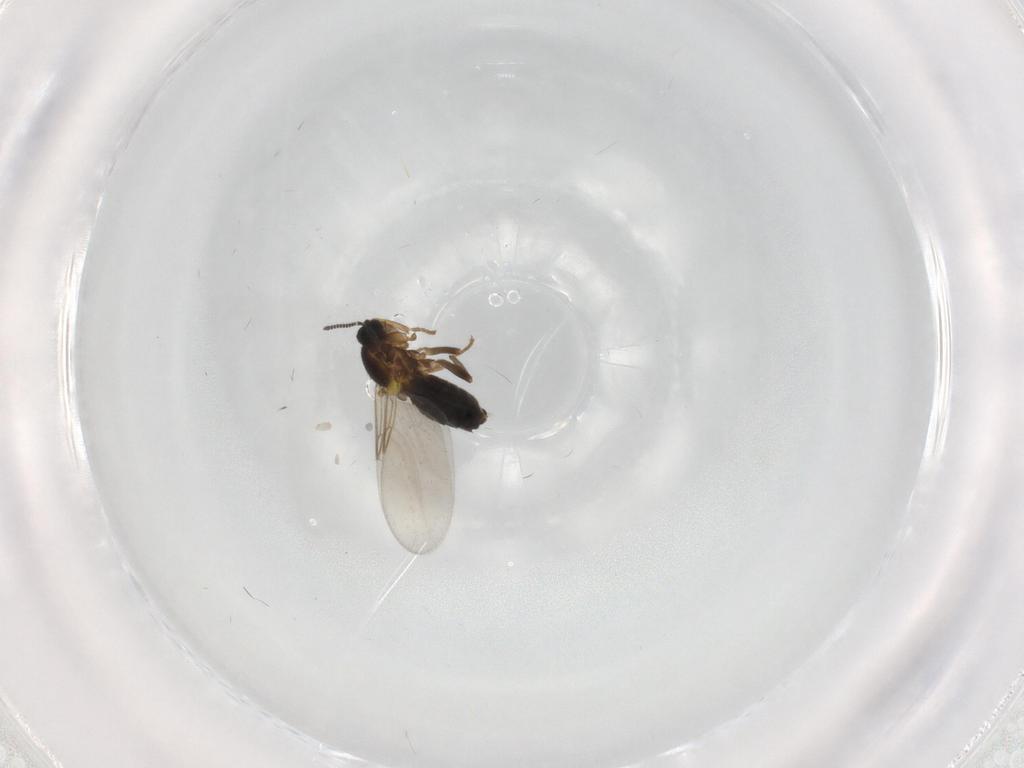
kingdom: Animalia
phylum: Arthropoda
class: Insecta
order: Diptera
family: Scatopsidae
